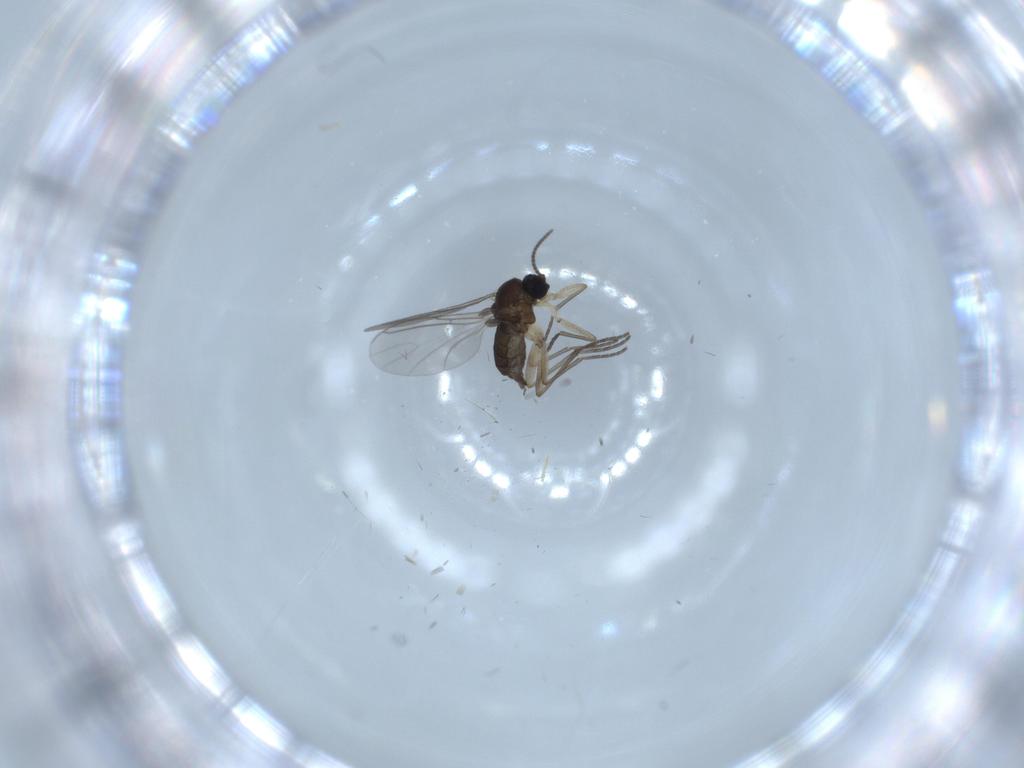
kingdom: Animalia
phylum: Arthropoda
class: Insecta
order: Diptera
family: Sciaridae
